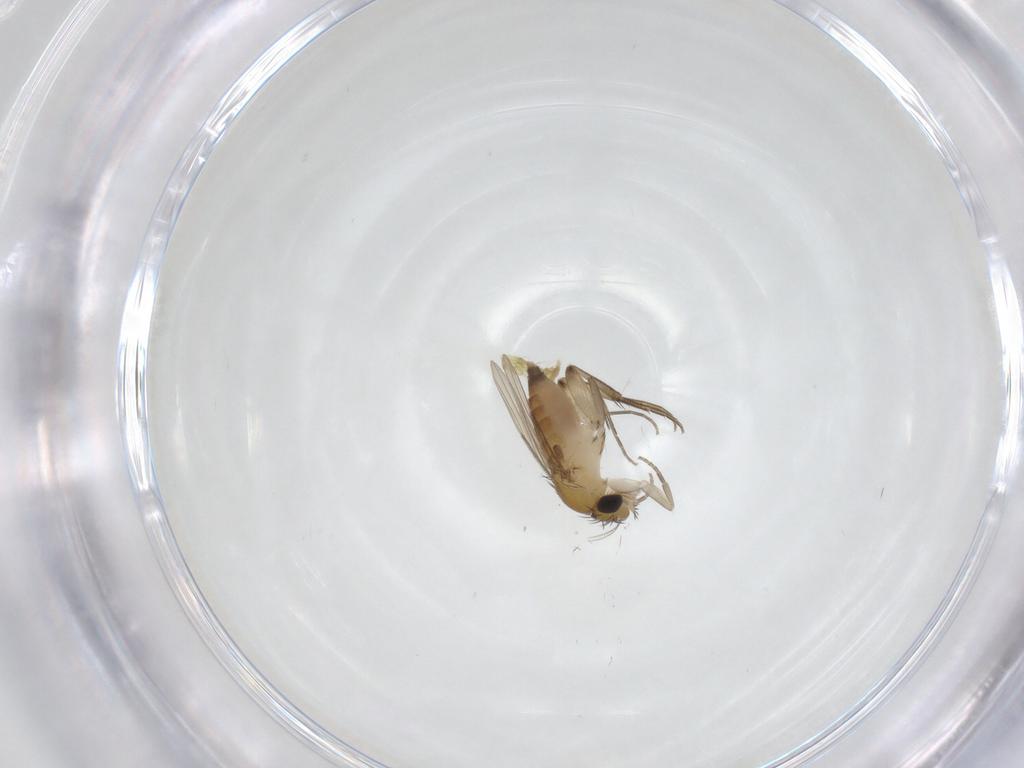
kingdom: Animalia
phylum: Arthropoda
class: Insecta
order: Diptera
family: Phoridae
